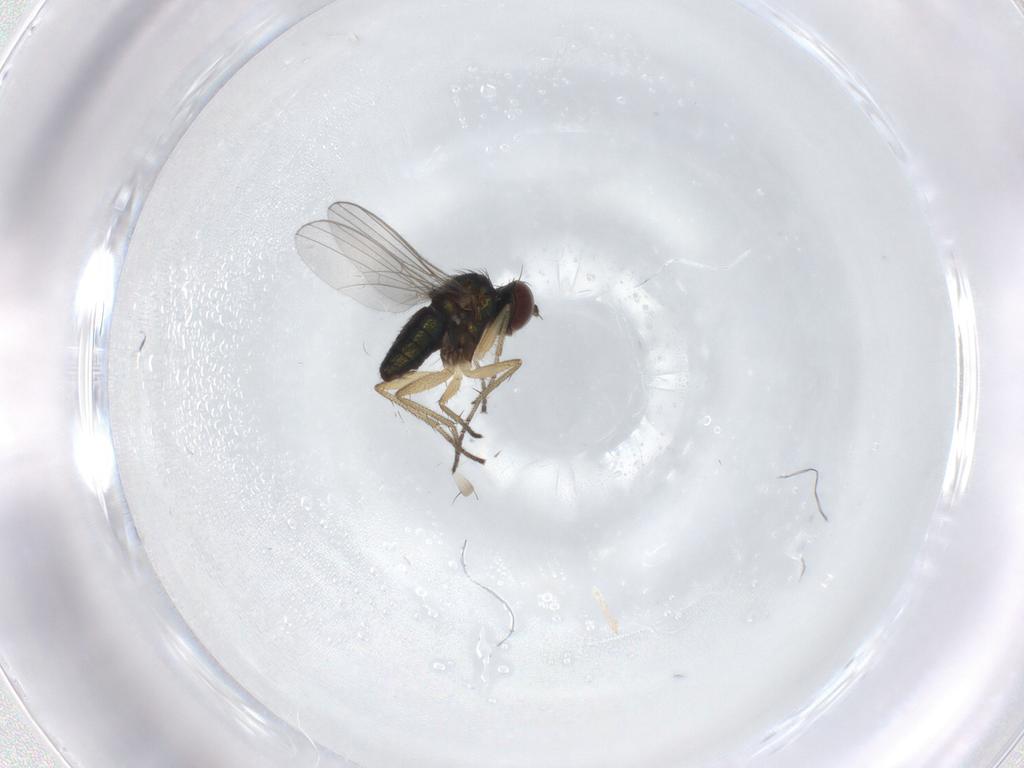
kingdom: Animalia
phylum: Arthropoda
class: Insecta
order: Diptera
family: Dolichopodidae
